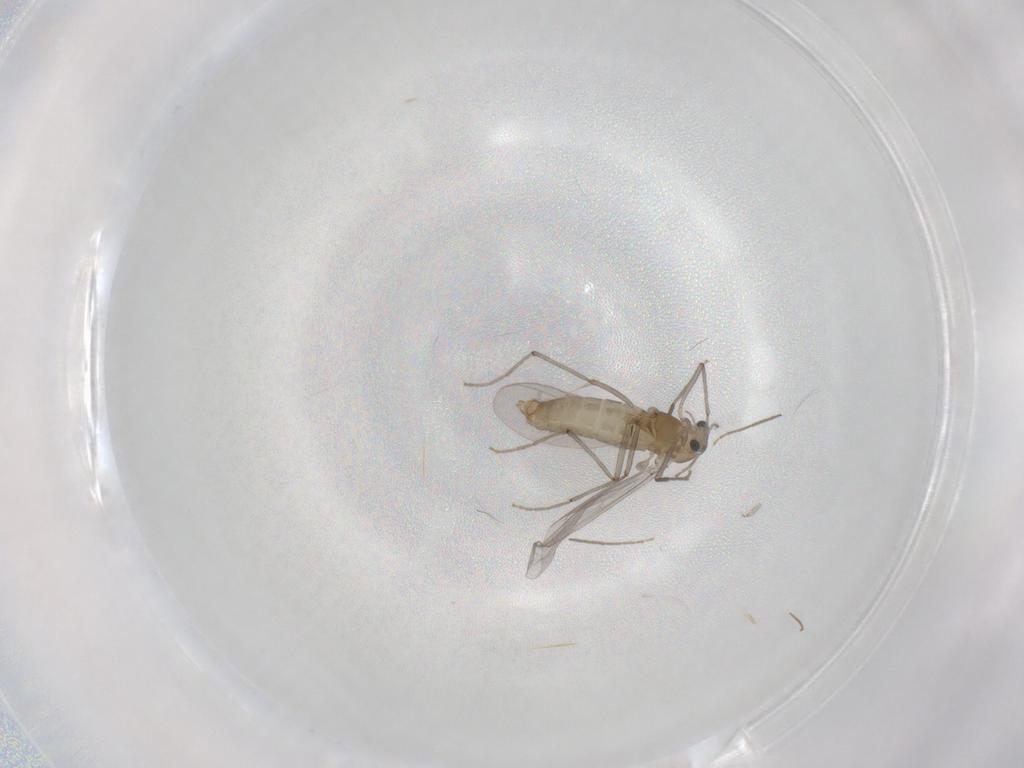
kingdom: Animalia
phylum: Arthropoda
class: Insecta
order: Diptera
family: Chironomidae
